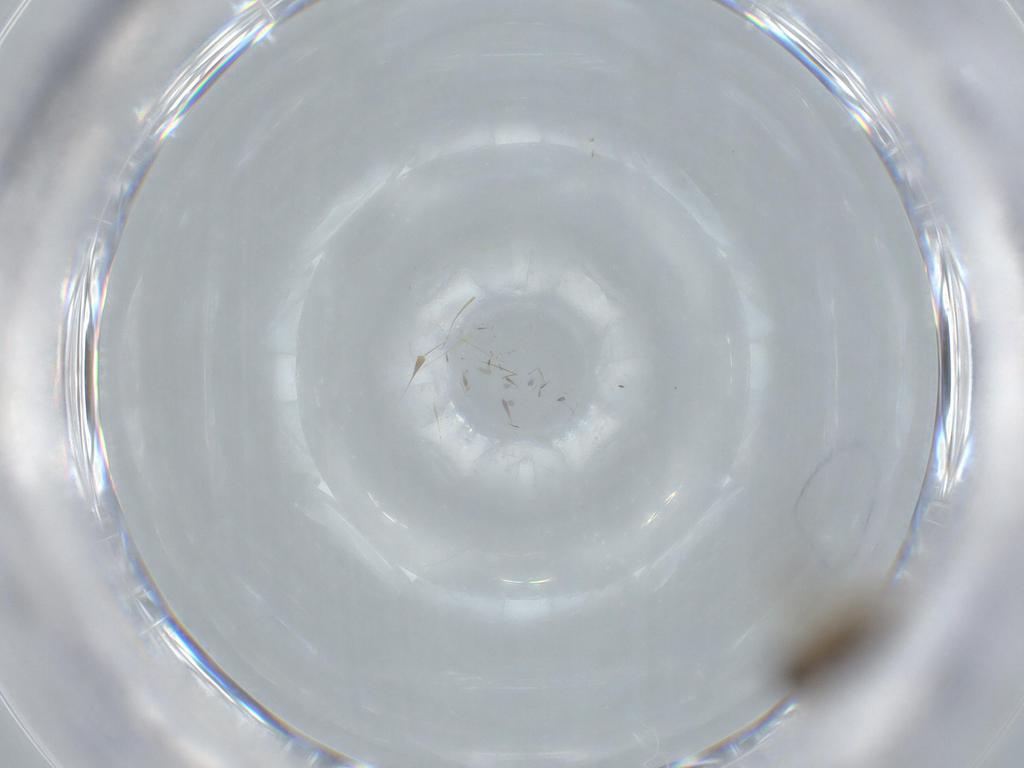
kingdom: Animalia
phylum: Arthropoda
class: Insecta
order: Diptera
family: Phoridae
